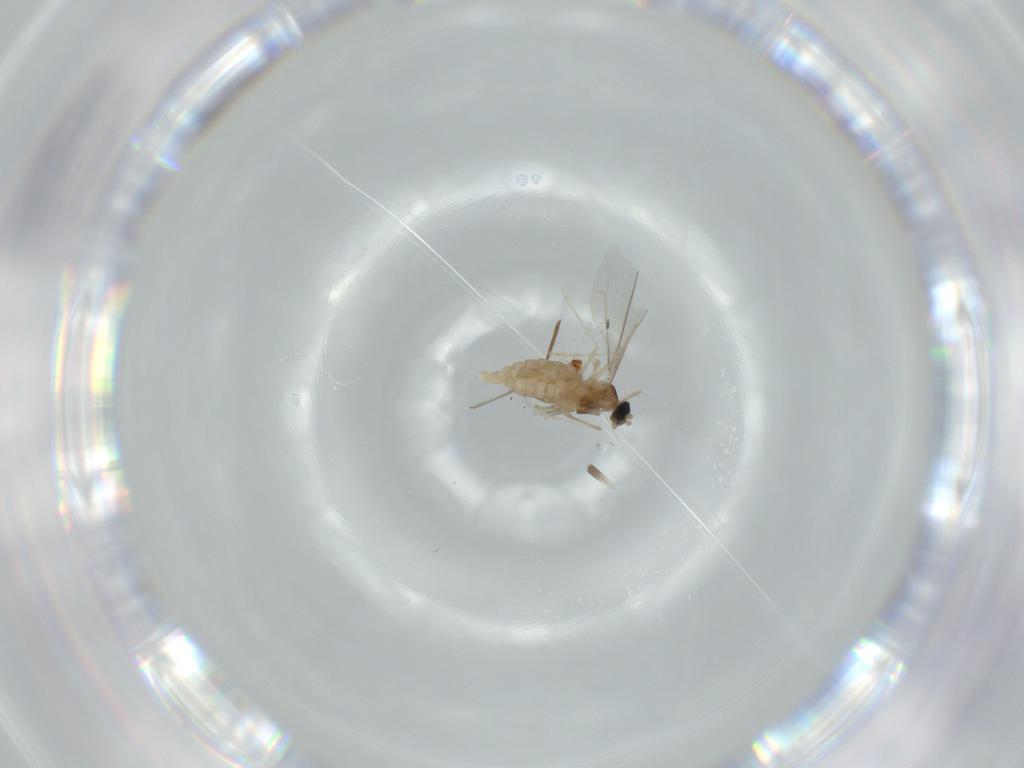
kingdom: Animalia
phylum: Arthropoda
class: Insecta
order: Diptera
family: Cecidomyiidae
